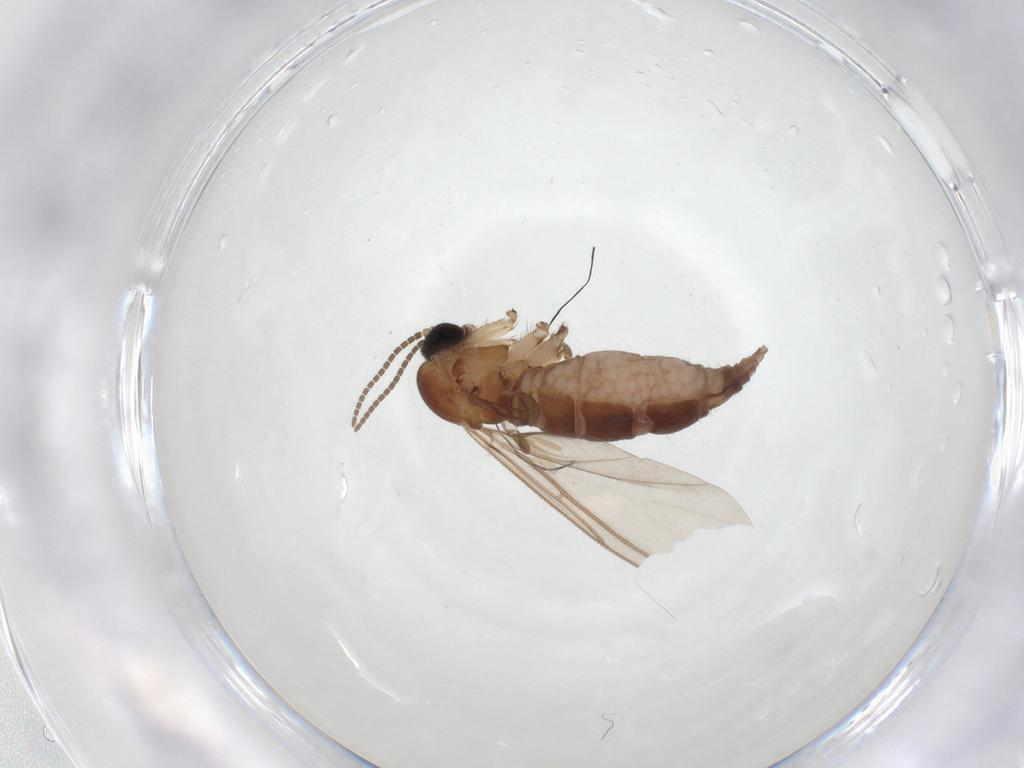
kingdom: Animalia
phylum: Arthropoda
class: Insecta
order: Diptera
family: Sciaridae
